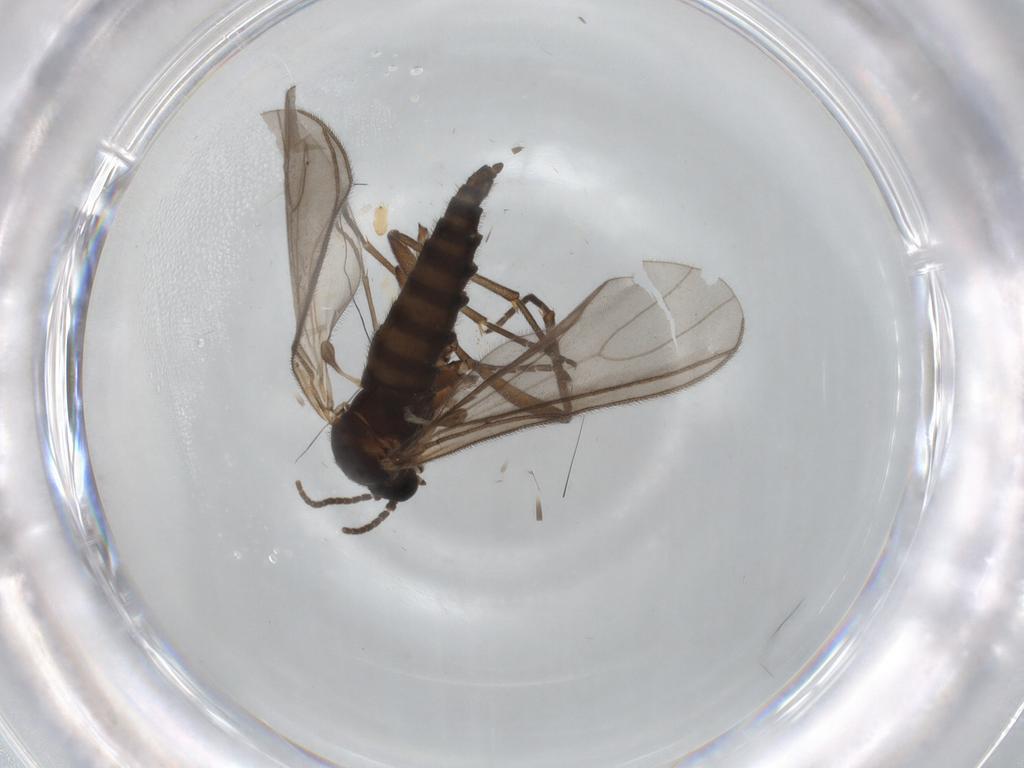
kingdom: Animalia
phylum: Arthropoda
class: Insecta
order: Diptera
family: Sciaridae
